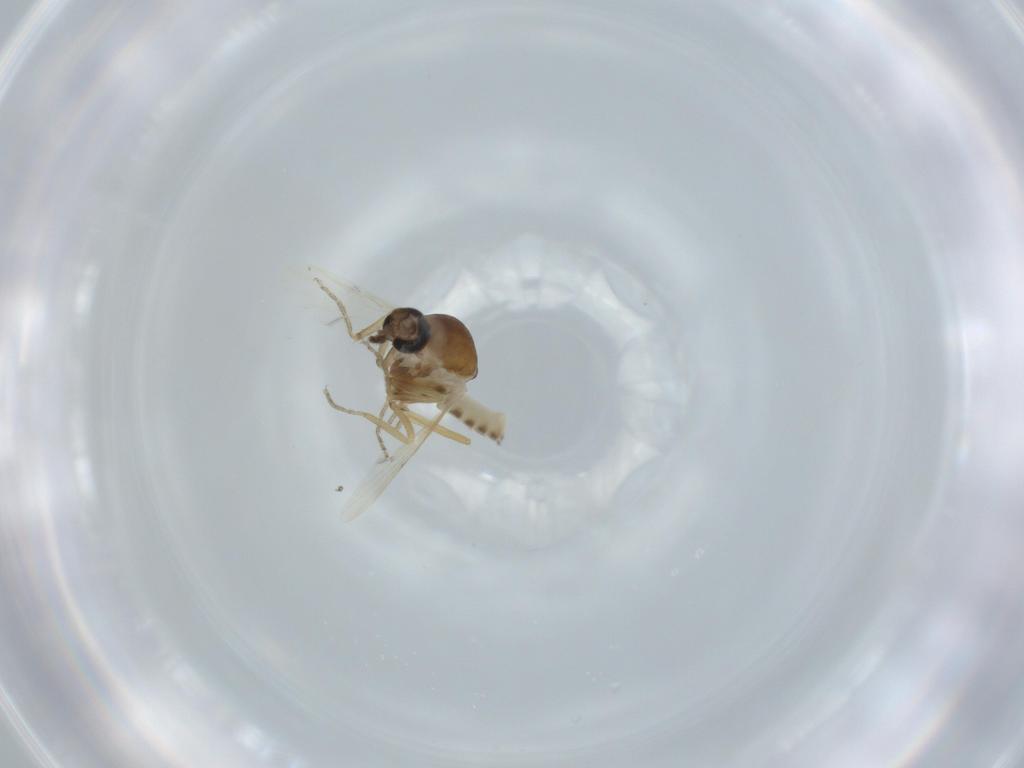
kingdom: Animalia
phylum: Arthropoda
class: Insecta
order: Diptera
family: Ceratopogonidae
